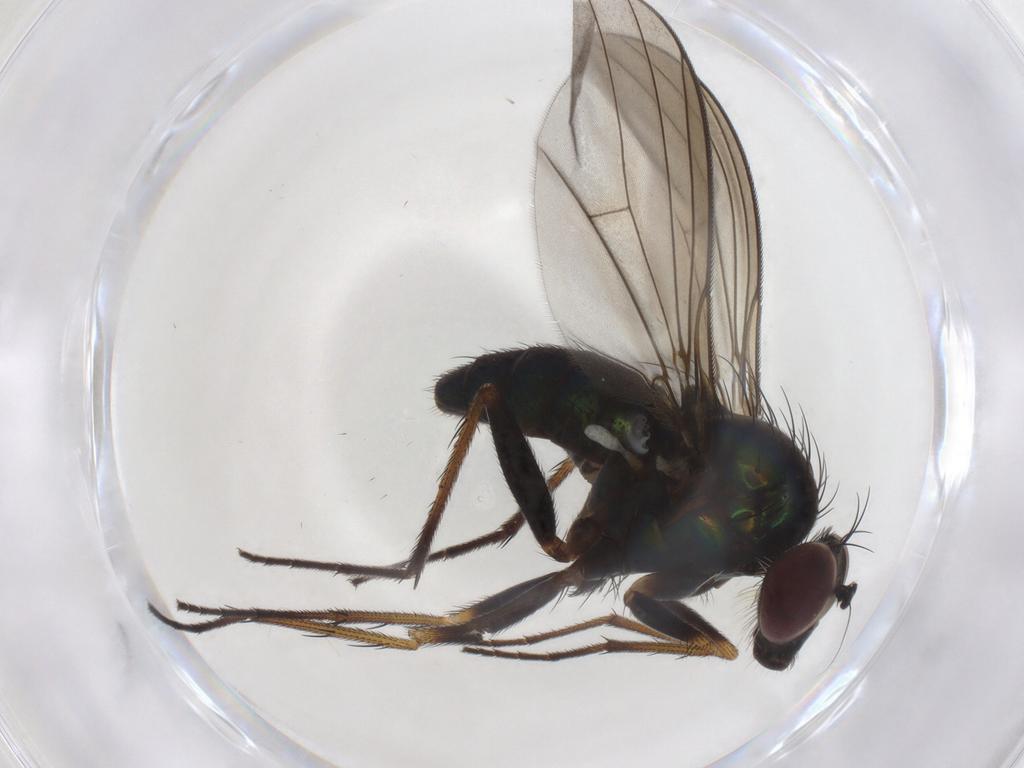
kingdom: Animalia
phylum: Arthropoda
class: Insecta
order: Diptera
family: Dolichopodidae
